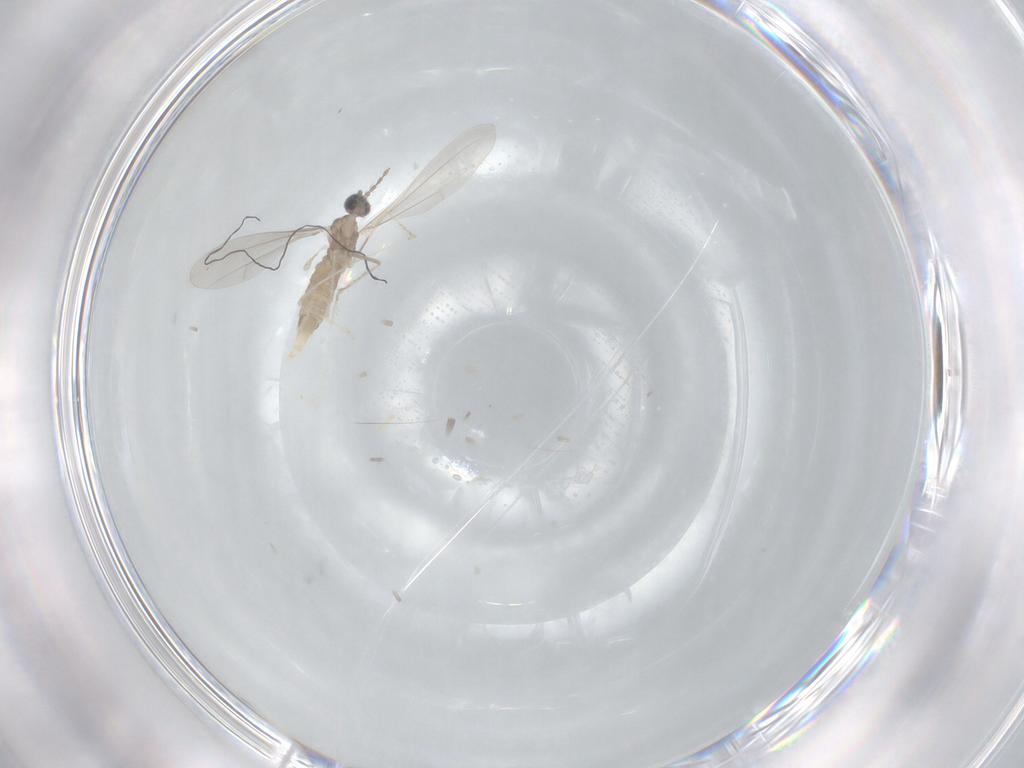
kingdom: Animalia
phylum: Arthropoda
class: Insecta
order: Diptera
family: Cecidomyiidae
